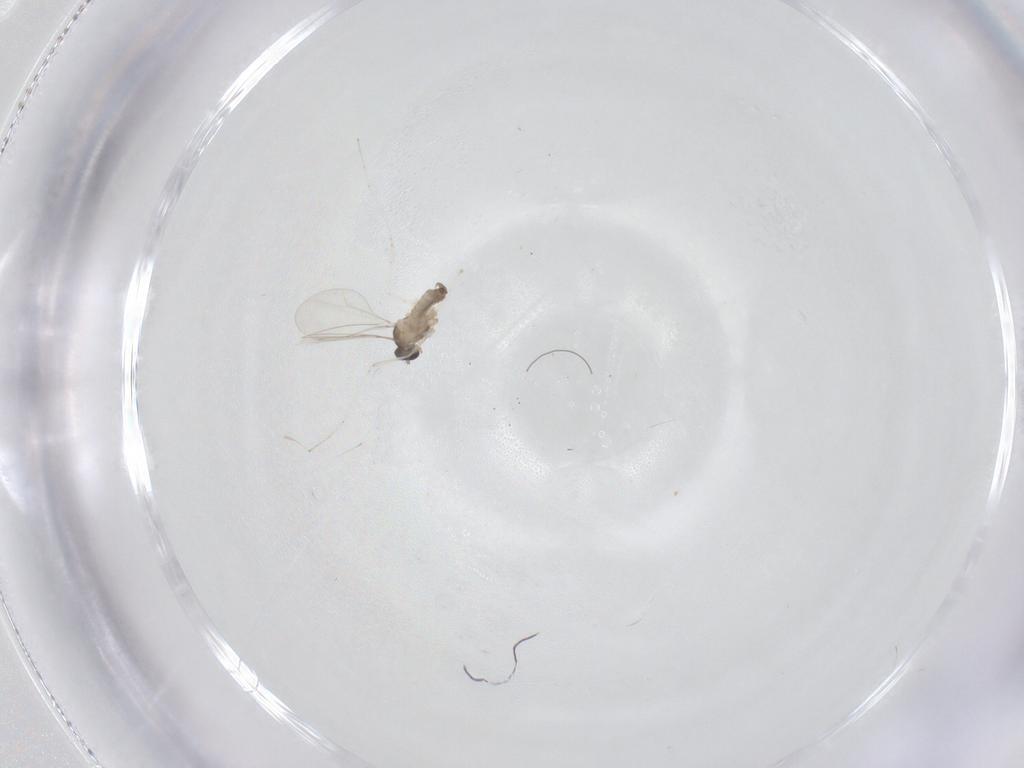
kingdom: Animalia
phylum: Arthropoda
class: Insecta
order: Diptera
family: Cecidomyiidae
